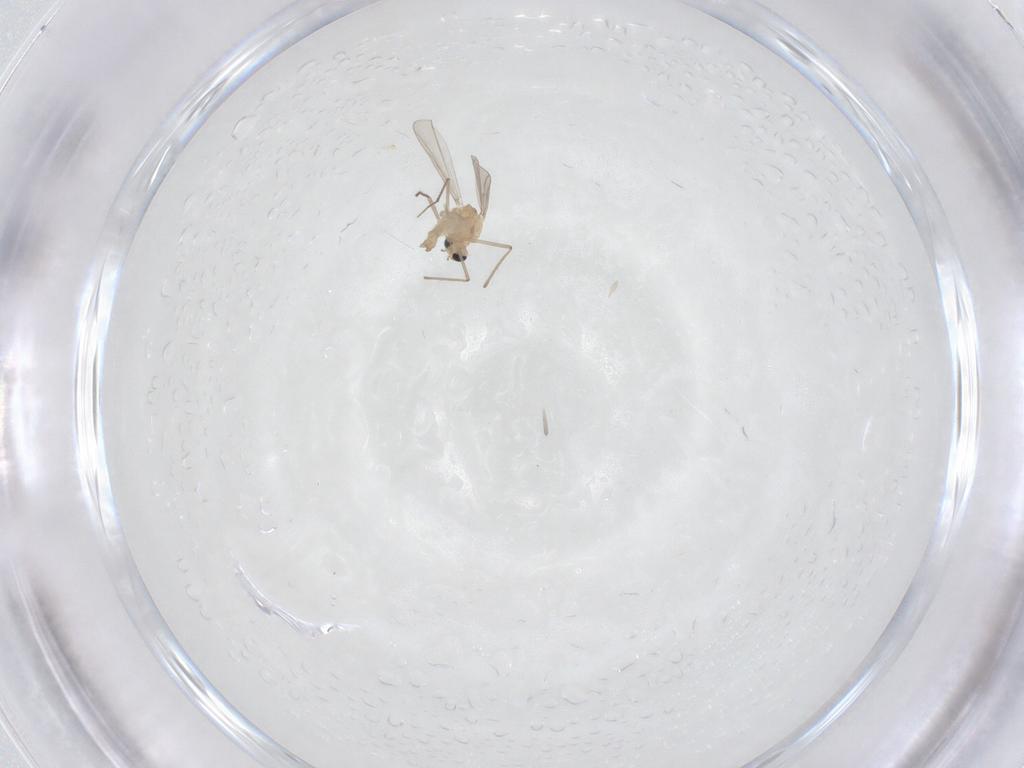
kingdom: Animalia
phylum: Arthropoda
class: Insecta
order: Diptera
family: Chironomidae
